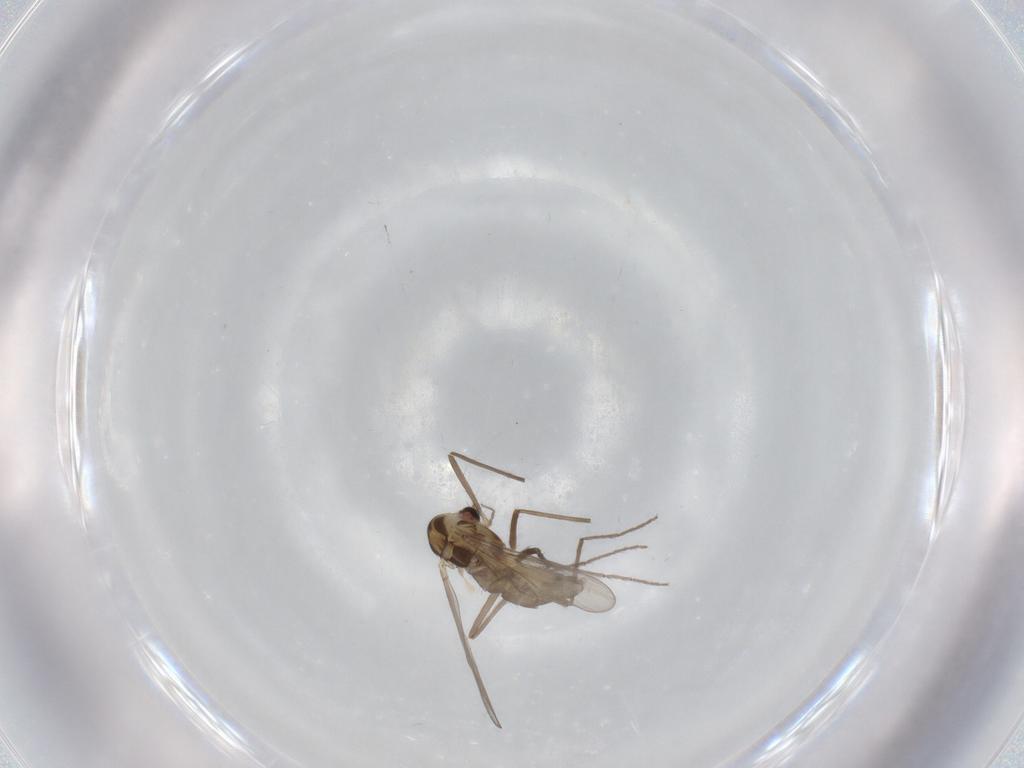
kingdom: Animalia
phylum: Arthropoda
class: Insecta
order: Diptera
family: Chironomidae
